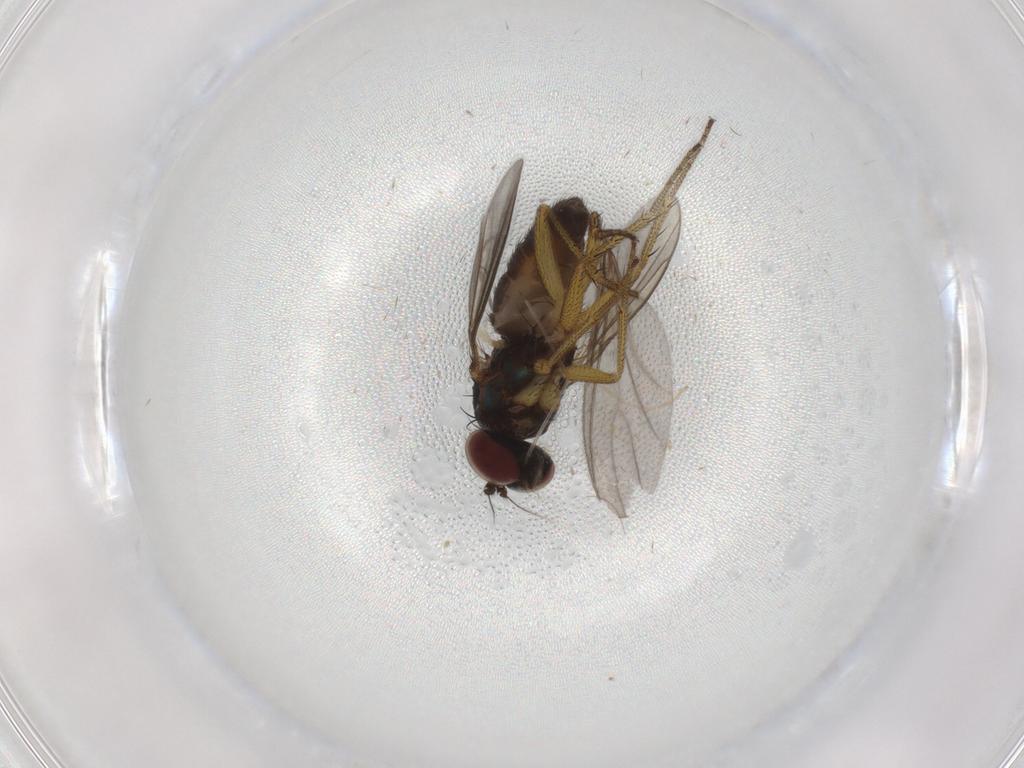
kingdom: Animalia
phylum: Arthropoda
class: Insecta
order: Diptera
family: Sciaridae
